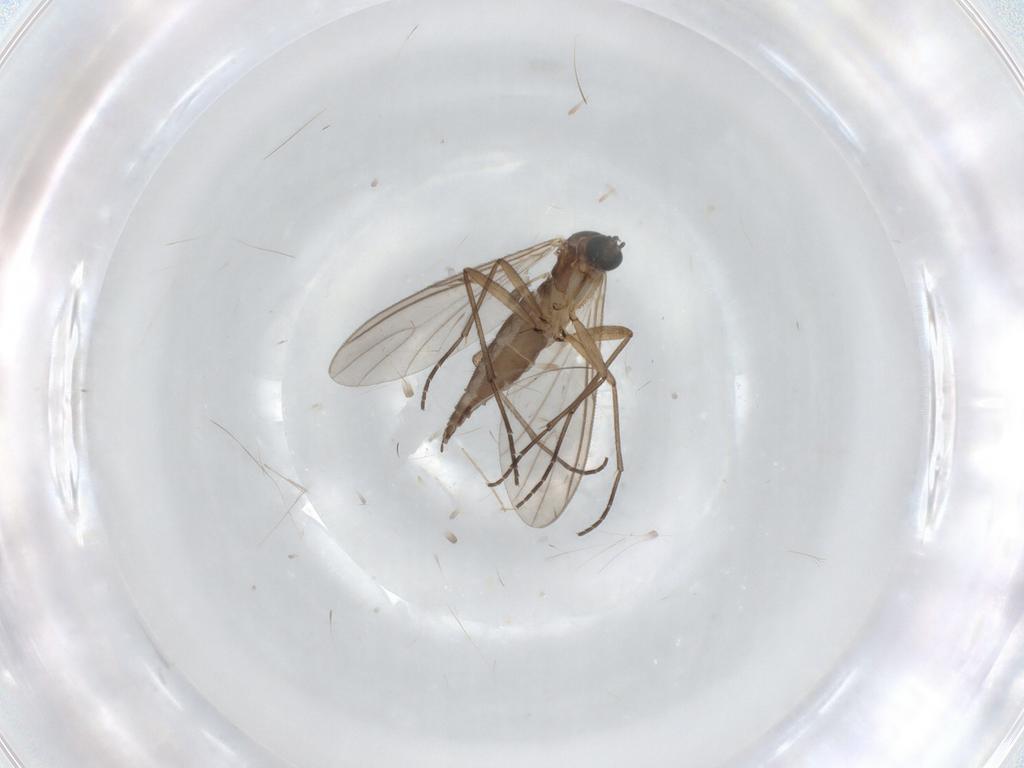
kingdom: Animalia
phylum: Arthropoda
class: Insecta
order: Diptera
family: Sciaridae
